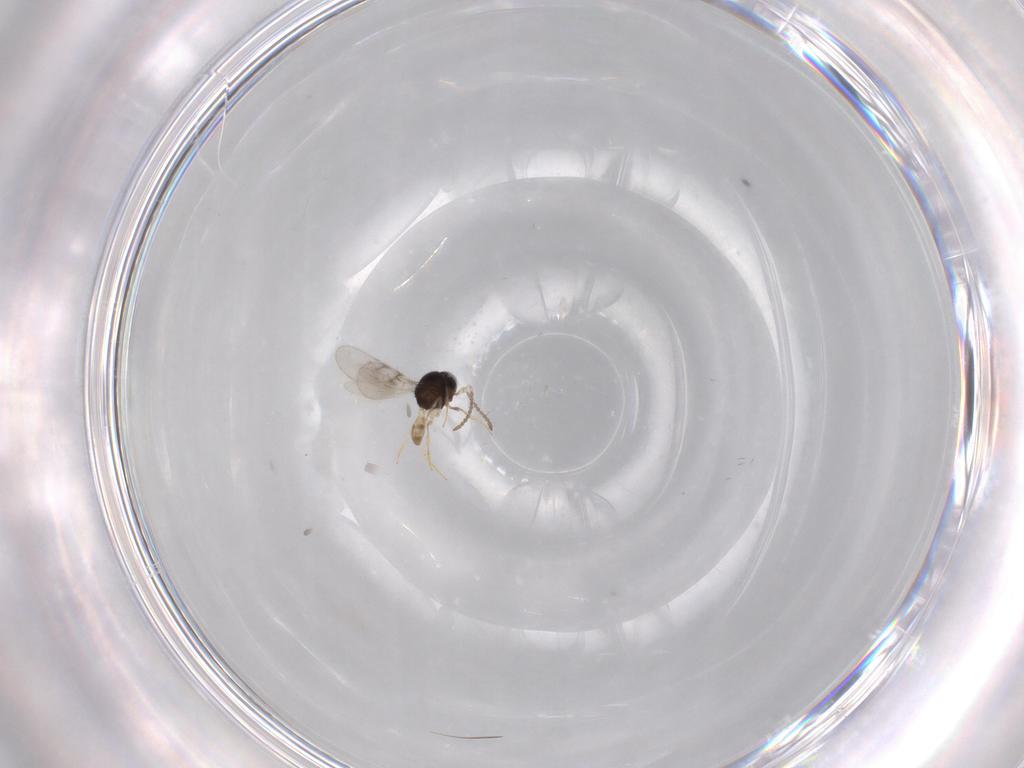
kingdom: Animalia
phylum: Arthropoda
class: Insecta
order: Hymenoptera
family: Scelionidae
